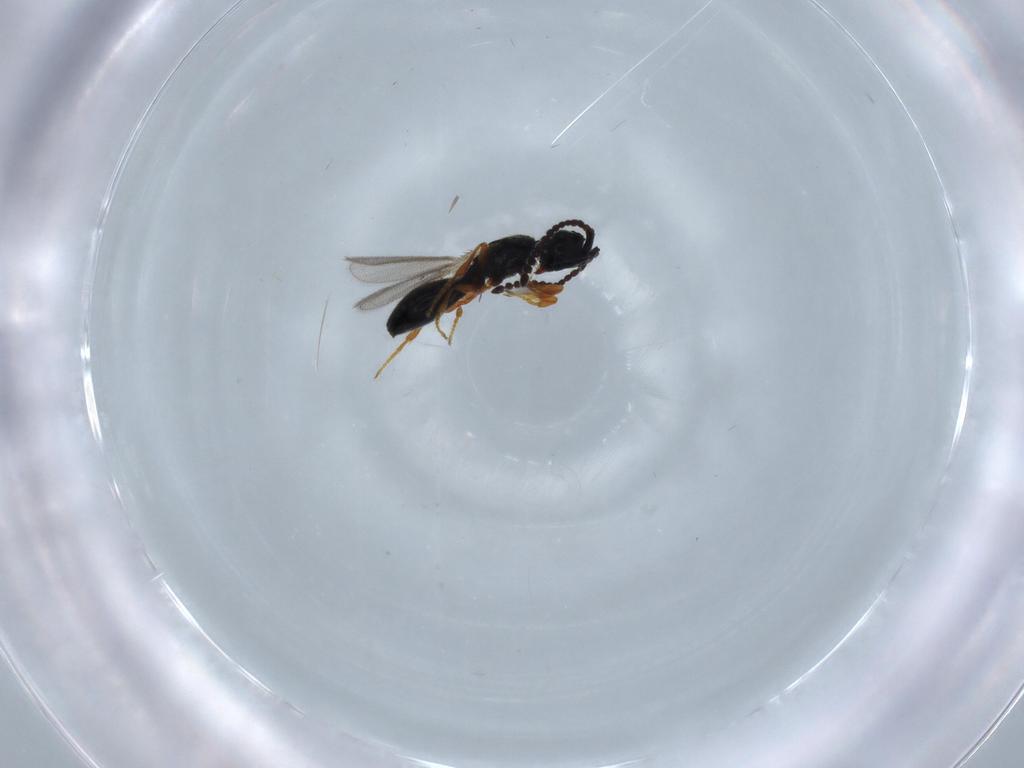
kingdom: Animalia
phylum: Arthropoda
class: Insecta
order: Hymenoptera
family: Diapriidae
